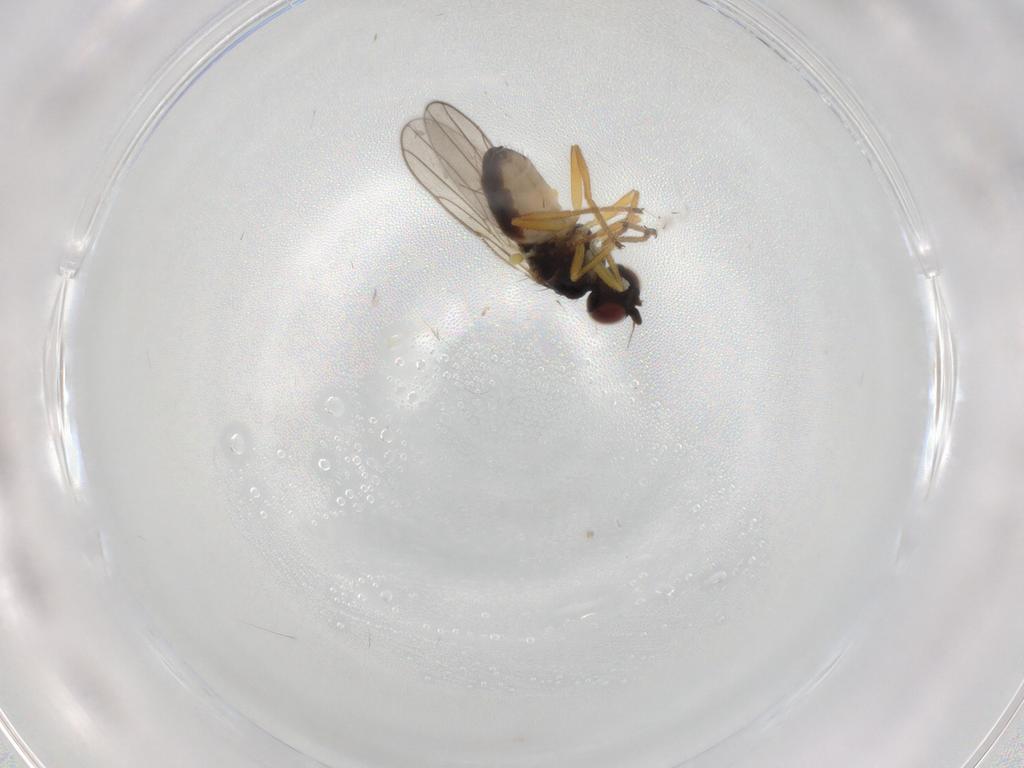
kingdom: Animalia
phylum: Arthropoda
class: Insecta
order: Diptera
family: Chloropidae
